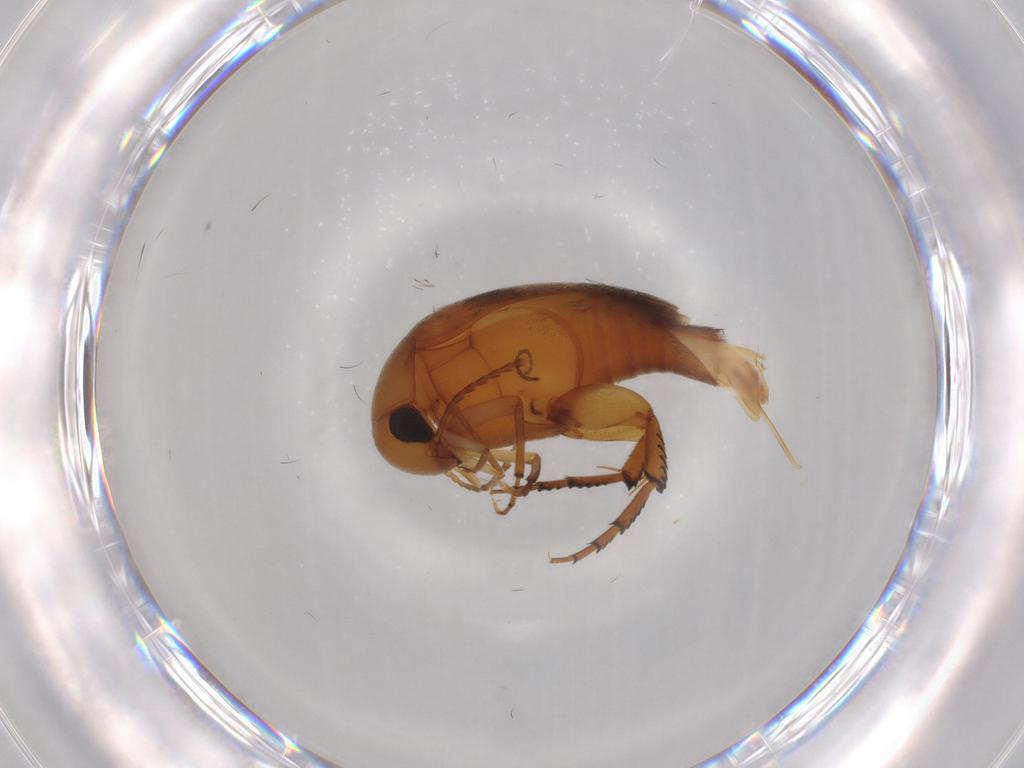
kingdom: Animalia
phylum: Arthropoda
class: Insecta
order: Coleoptera
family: Mordellidae
